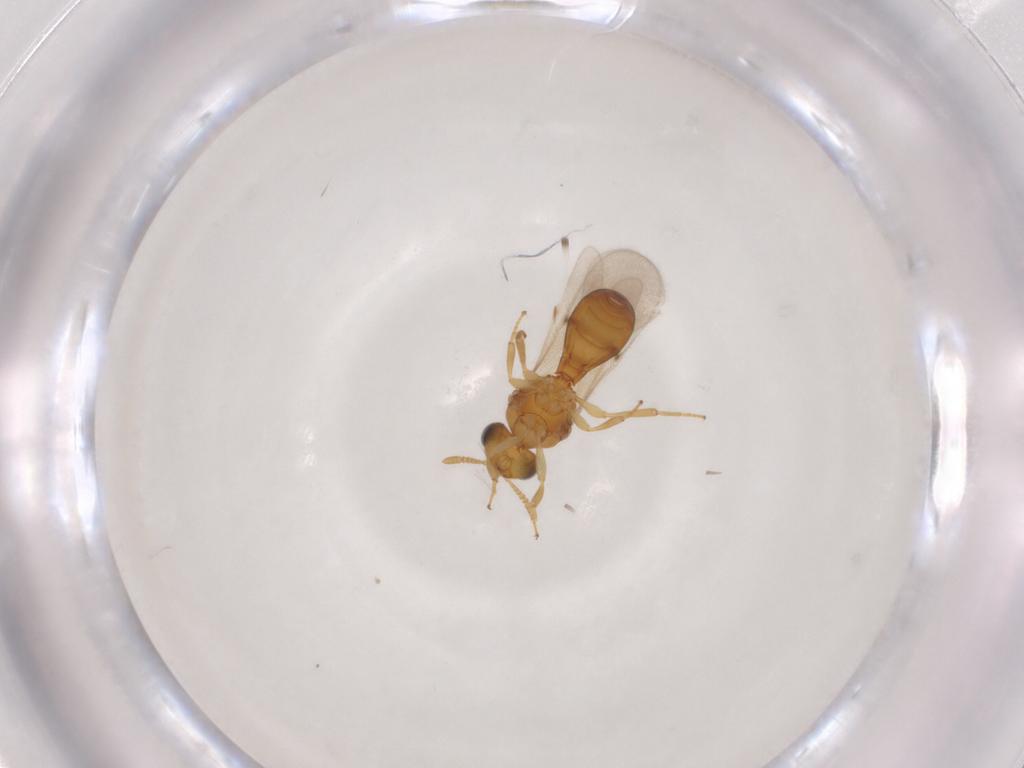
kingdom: Animalia
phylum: Arthropoda
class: Insecta
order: Hymenoptera
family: Scelionidae
